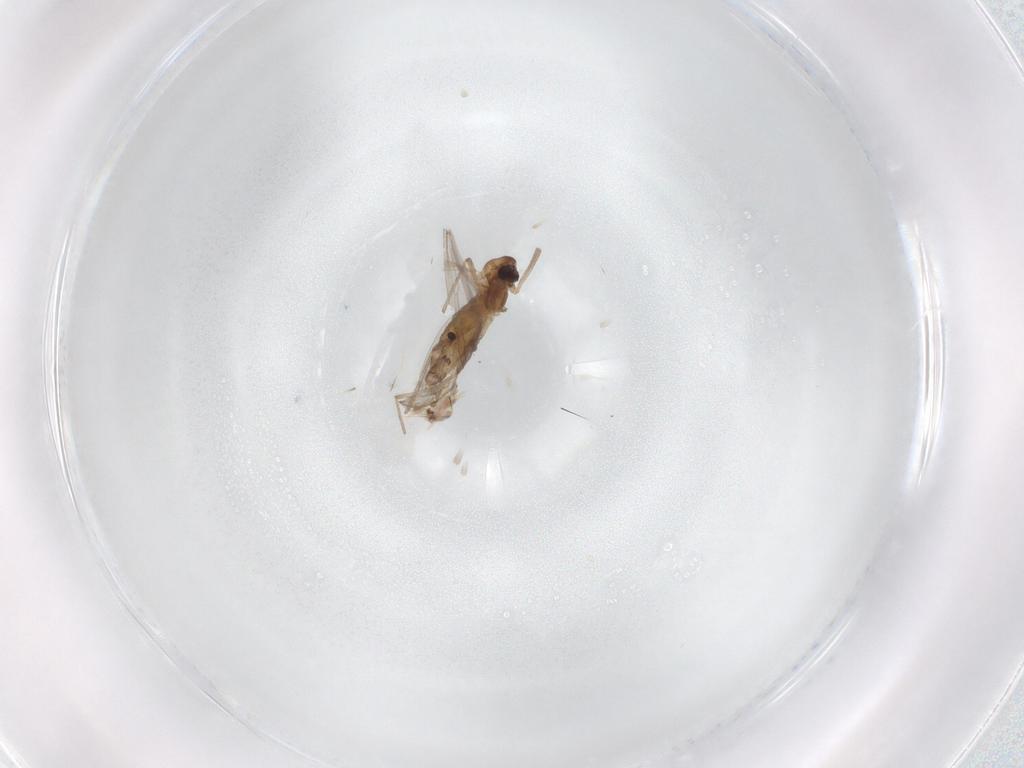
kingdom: Animalia
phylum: Arthropoda
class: Insecta
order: Diptera
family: Chironomidae
